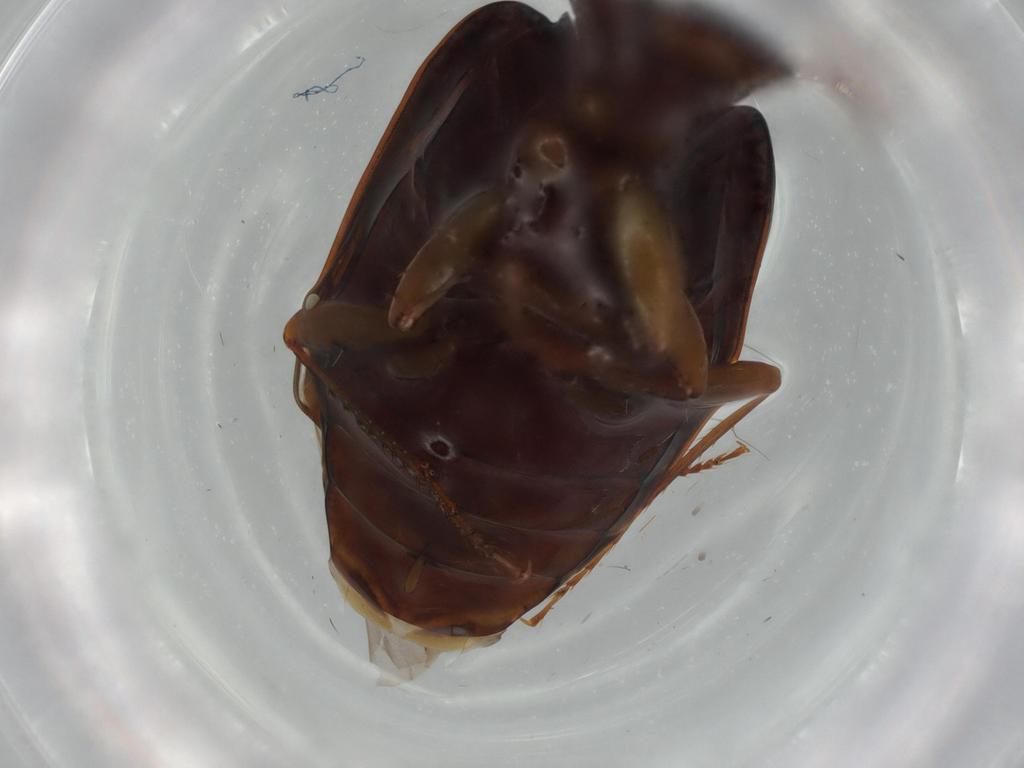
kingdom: Animalia
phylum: Arthropoda
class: Insecta
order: Coleoptera
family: Carabidae
